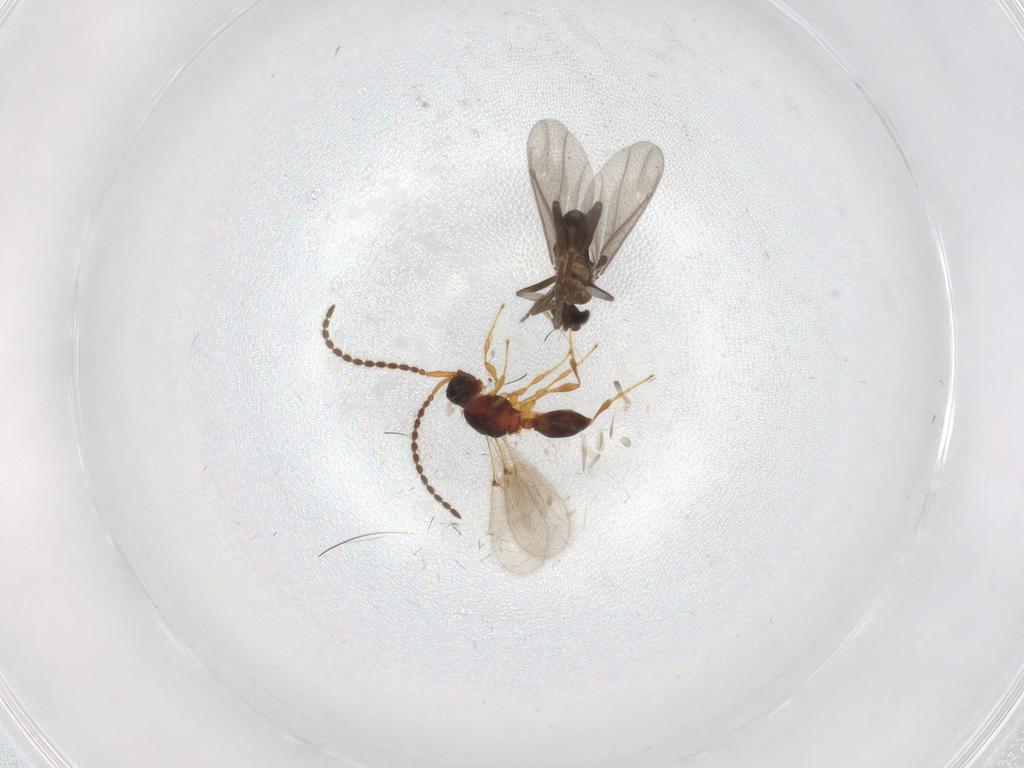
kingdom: Animalia
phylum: Arthropoda
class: Insecta
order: Diptera
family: Phoridae
